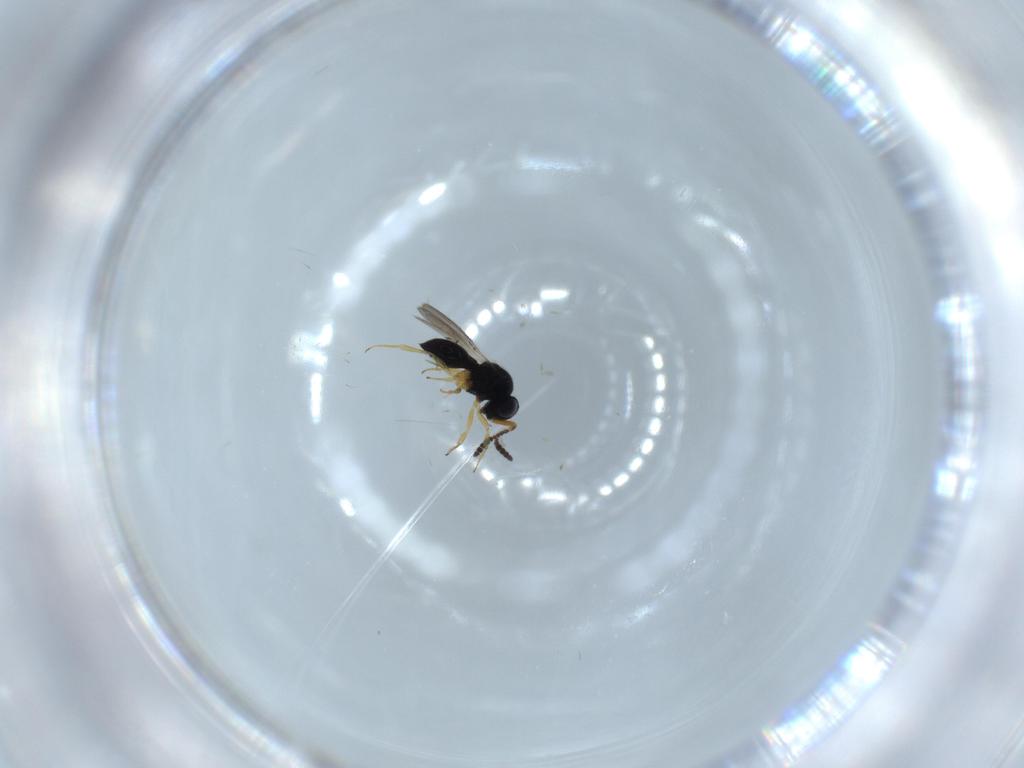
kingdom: Animalia
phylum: Arthropoda
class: Insecta
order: Hymenoptera
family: Scelionidae
